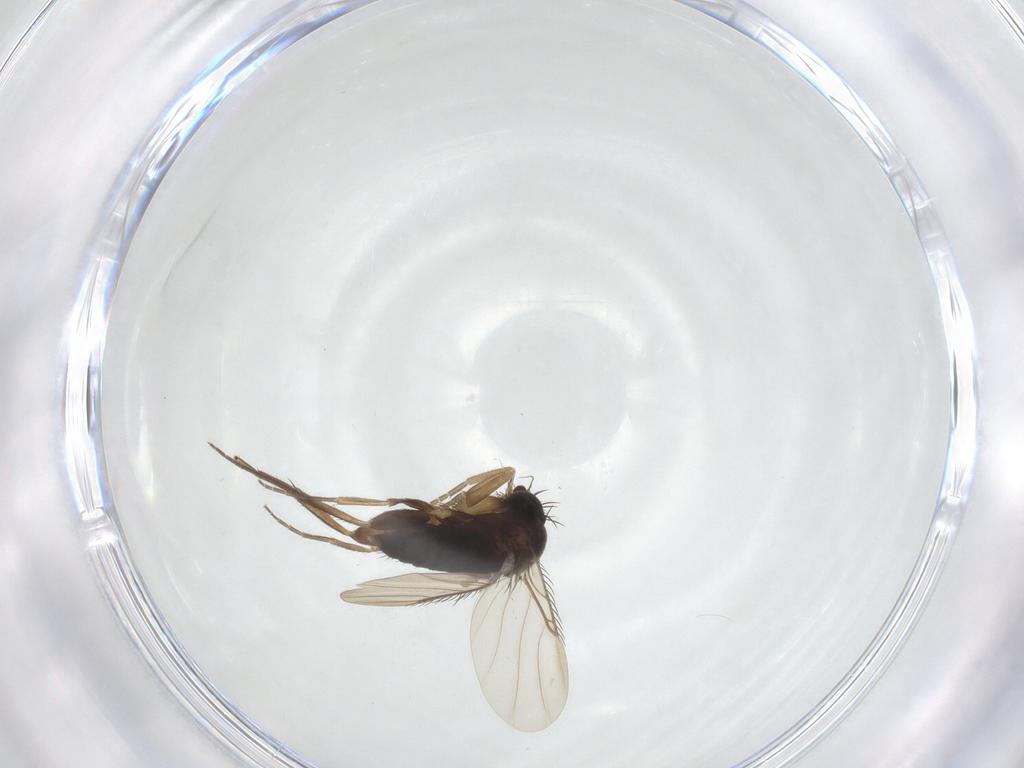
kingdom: Animalia
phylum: Arthropoda
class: Insecta
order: Diptera
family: Phoridae
